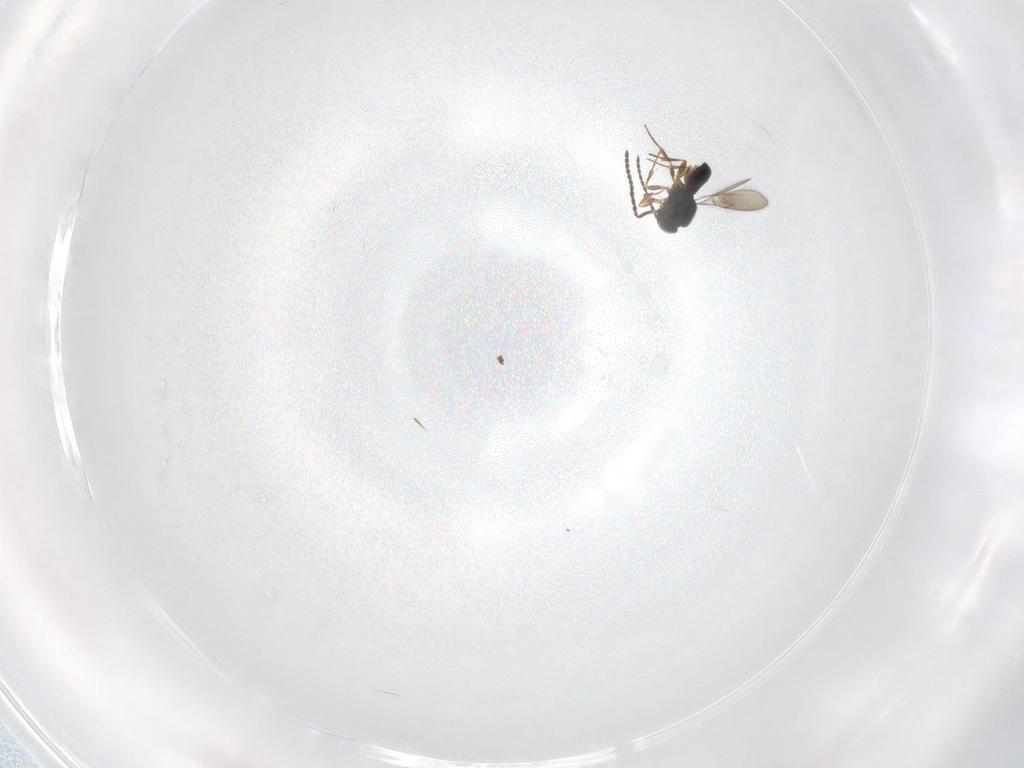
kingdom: Animalia
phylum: Arthropoda
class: Insecta
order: Hymenoptera
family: Scelionidae
